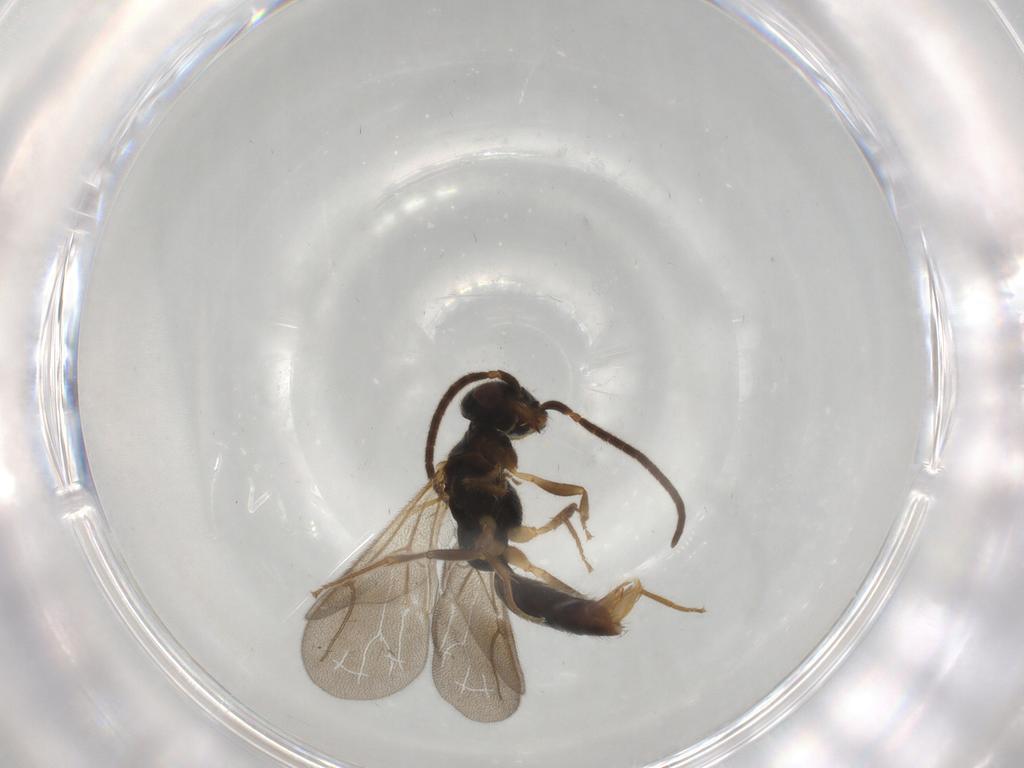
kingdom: Animalia
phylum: Arthropoda
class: Insecta
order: Hymenoptera
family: Bethylidae
